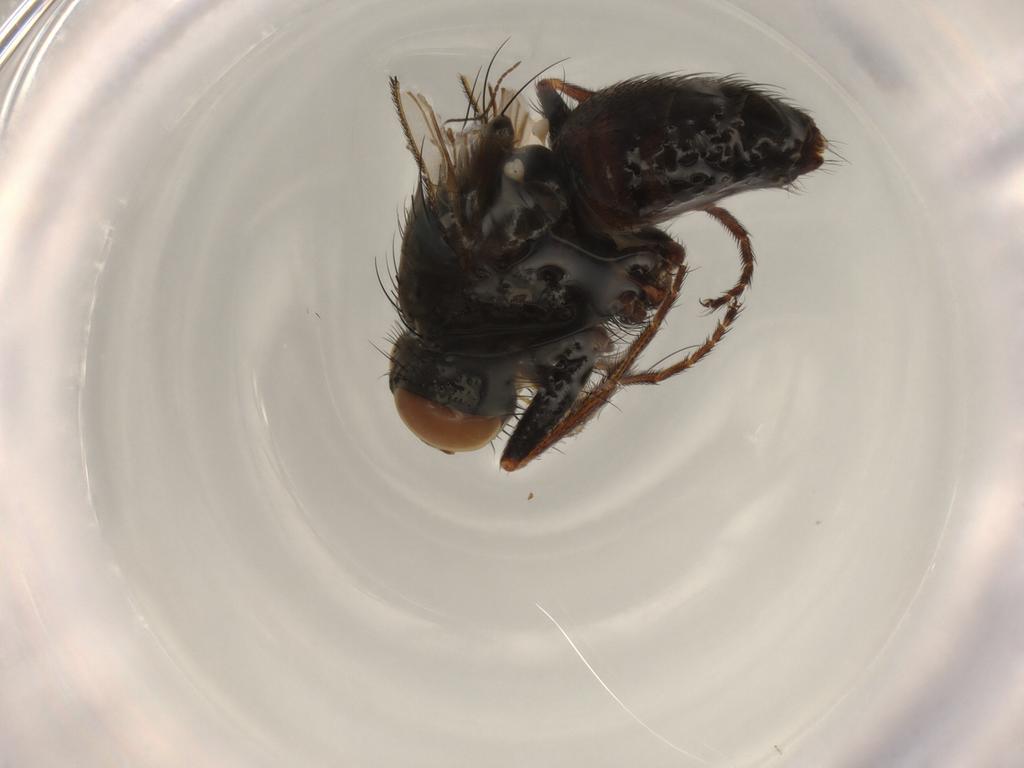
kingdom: Animalia
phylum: Arthropoda
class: Insecta
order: Diptera
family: Muscidae
